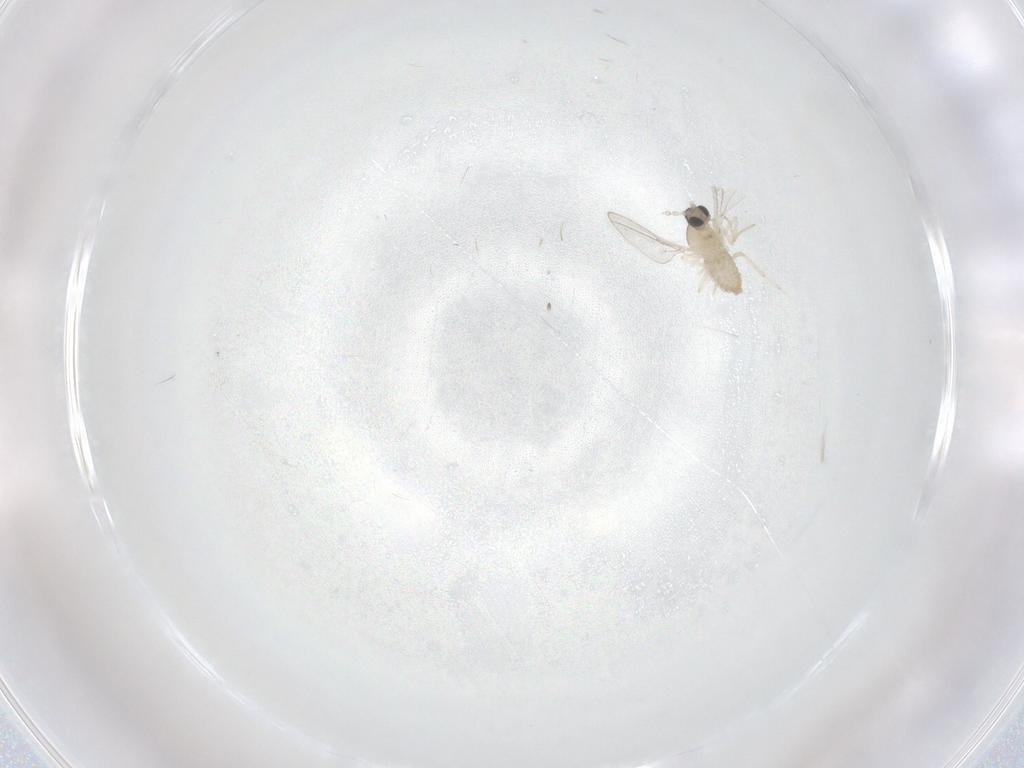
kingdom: Animalia
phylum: Arthropoda
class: Insecta
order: Diptera
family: Cecidomyiidae
